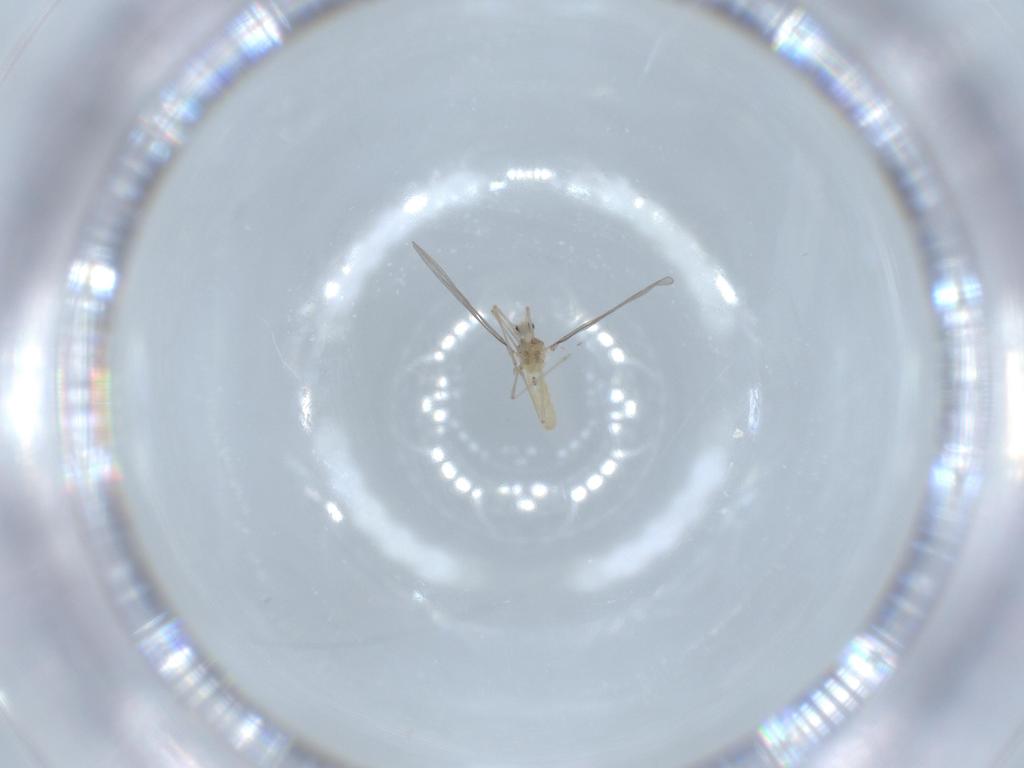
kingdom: Animalia
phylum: Arthropoda
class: Insecta
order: Diptera
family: Cecidomyiidae
